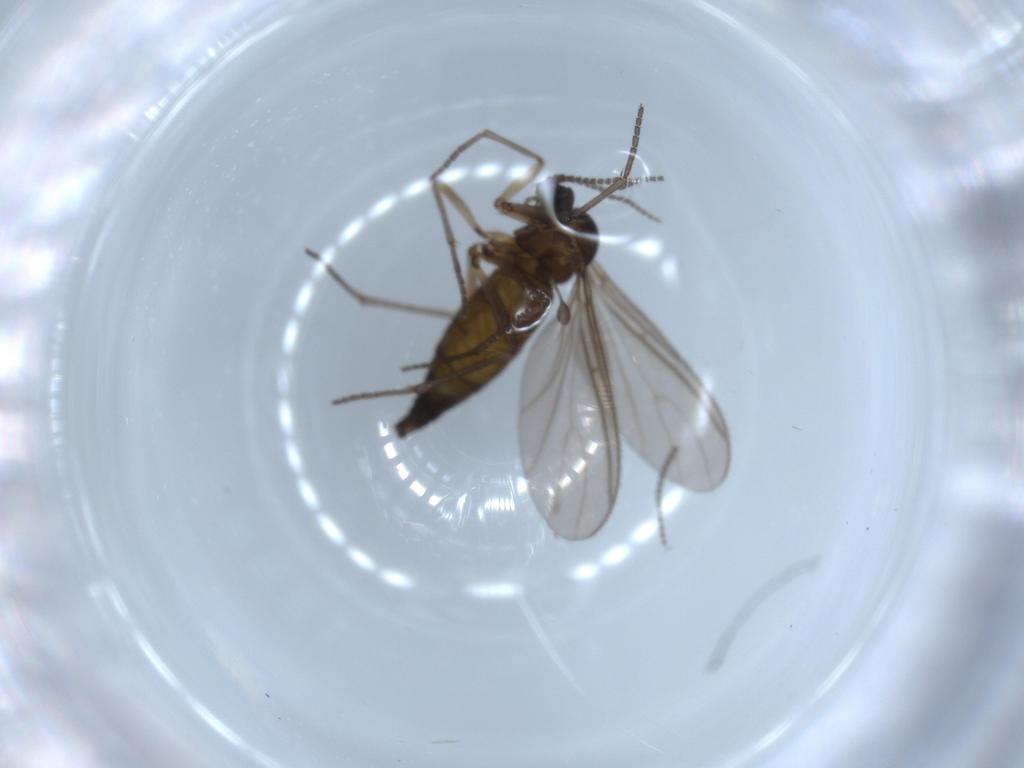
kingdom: Animalia
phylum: Arthropoda
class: Insecta
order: Diptera
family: Sciaridae
